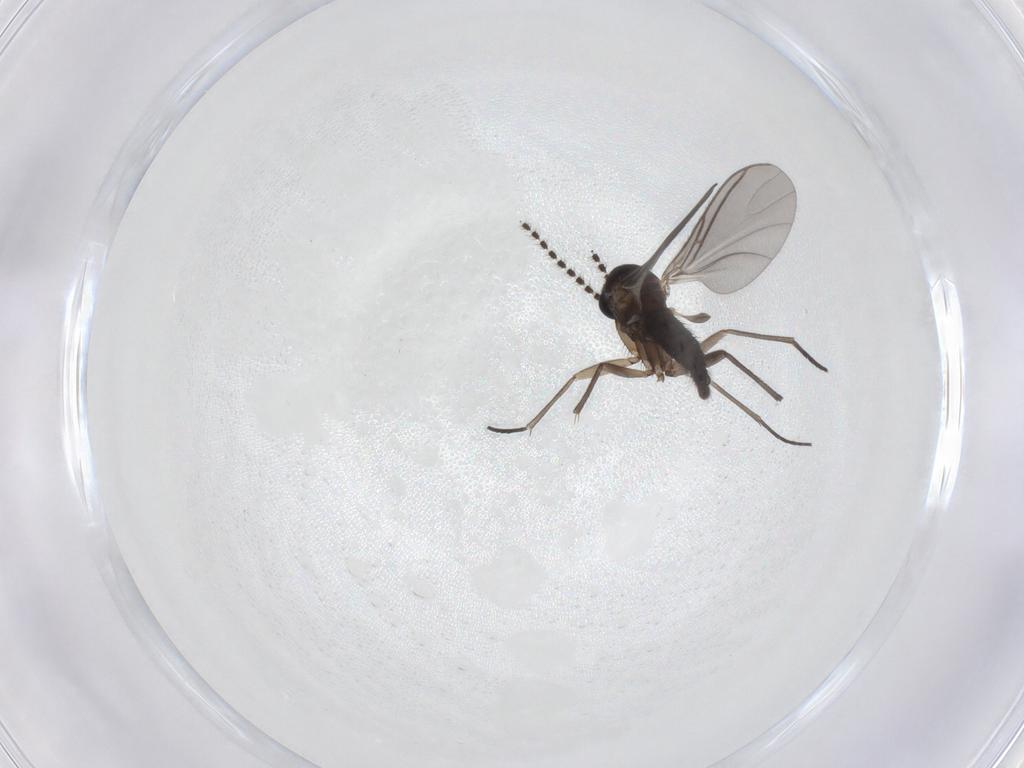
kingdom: Animalia
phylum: Arthropoda
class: Insecta
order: Diptera
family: Sciaridae
